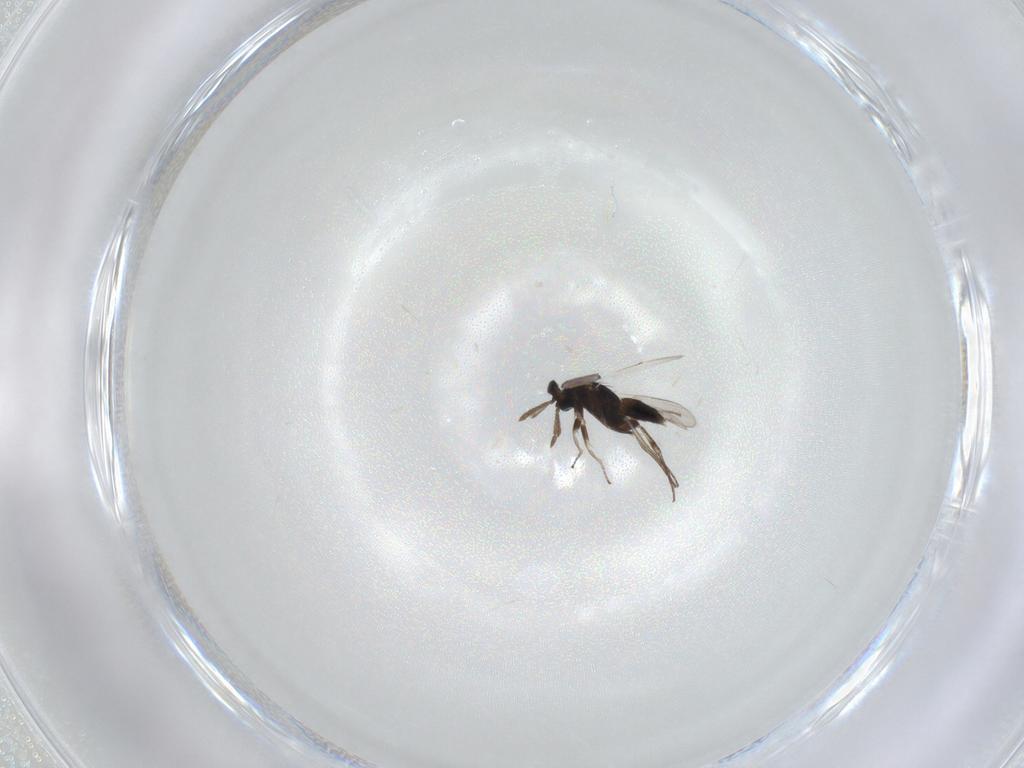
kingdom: Animalia
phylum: Arthropoda
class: Insecta
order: Hymenoptera
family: Eulophidae
